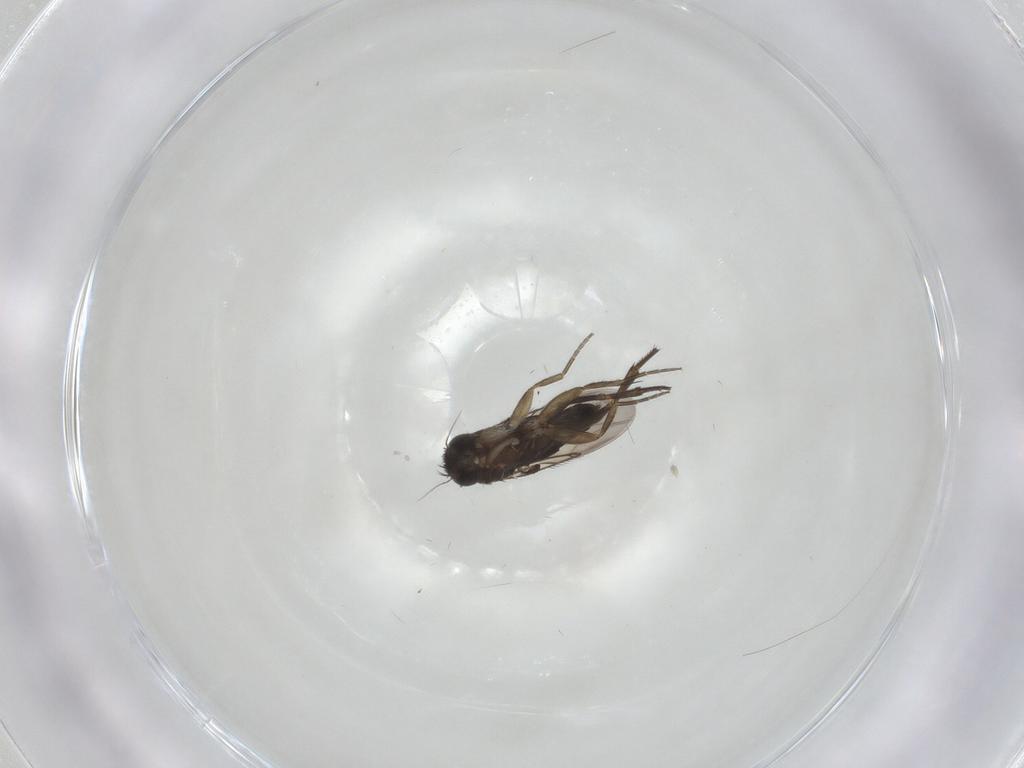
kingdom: Animalia
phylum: Arthropoda
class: Insecta
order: Diptera
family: Phoridae
